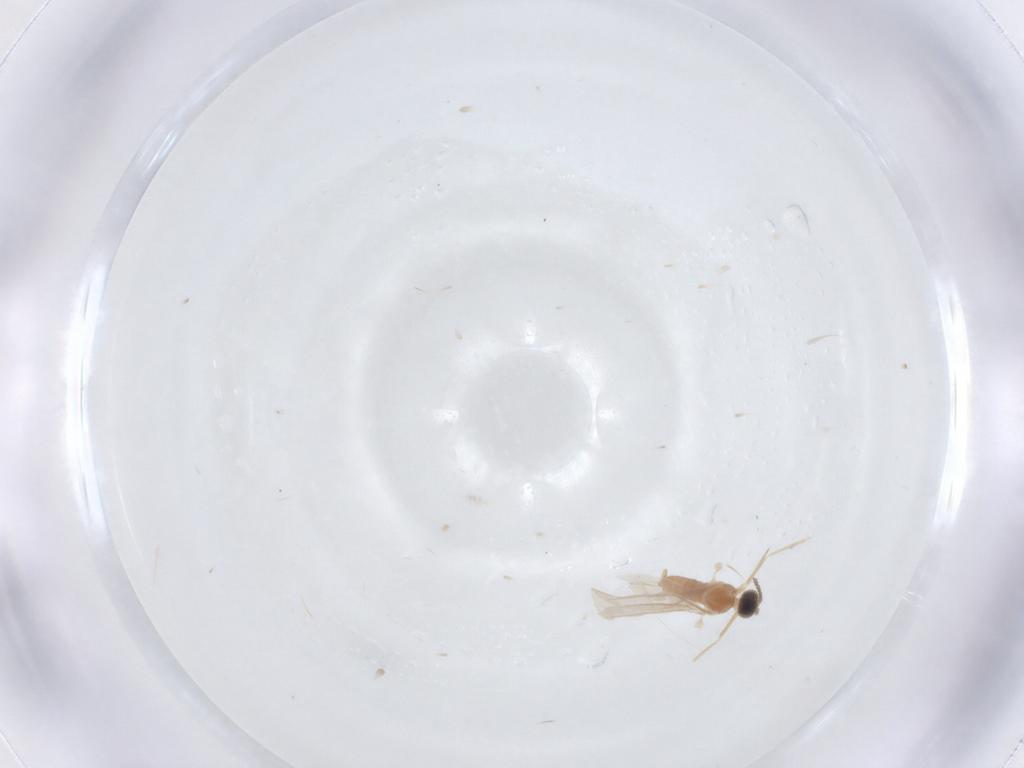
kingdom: Animalia
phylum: Arthropoda
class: Insecta
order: Diptera
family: Cecidomyiidae
